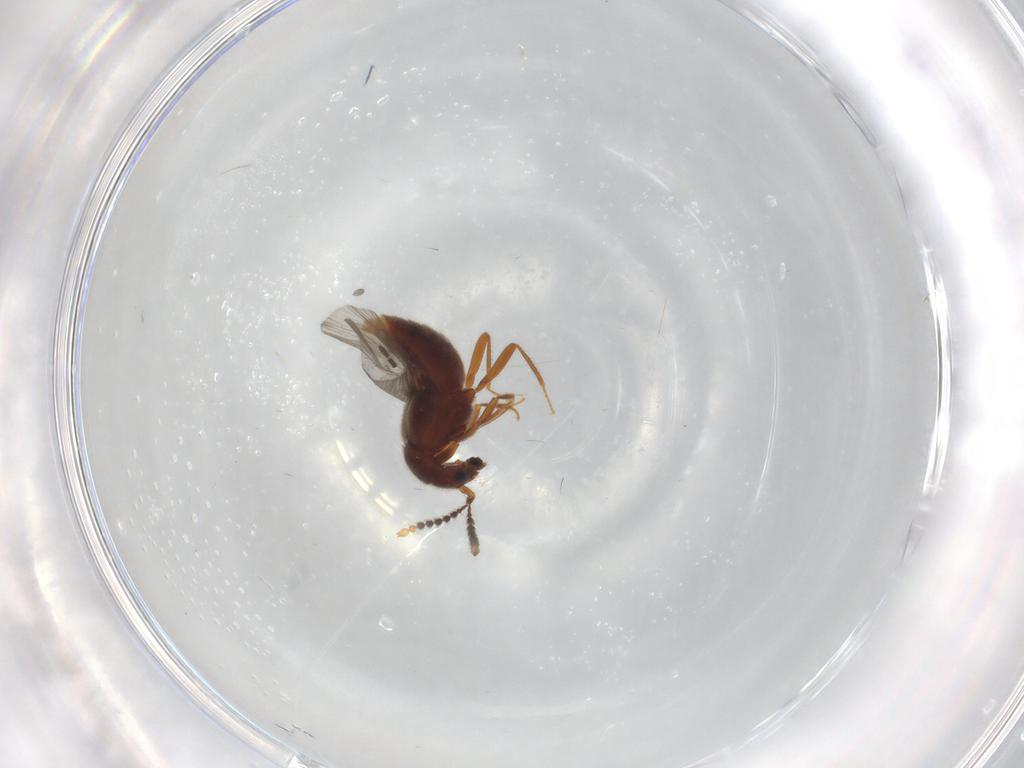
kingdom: Animalia
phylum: Arthropoda
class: Insecta
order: Coleoptera
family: Staphylinidae
